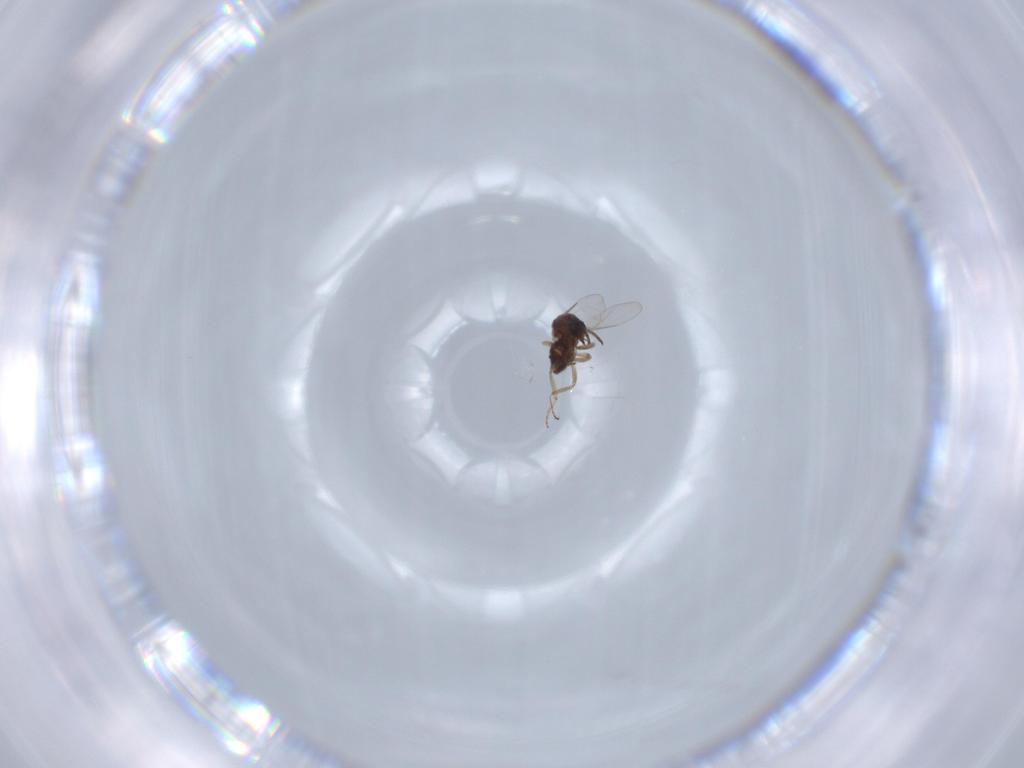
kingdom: Animalia
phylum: Arthropoda
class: Insecta
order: Diptera
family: Ceratopogonidae
